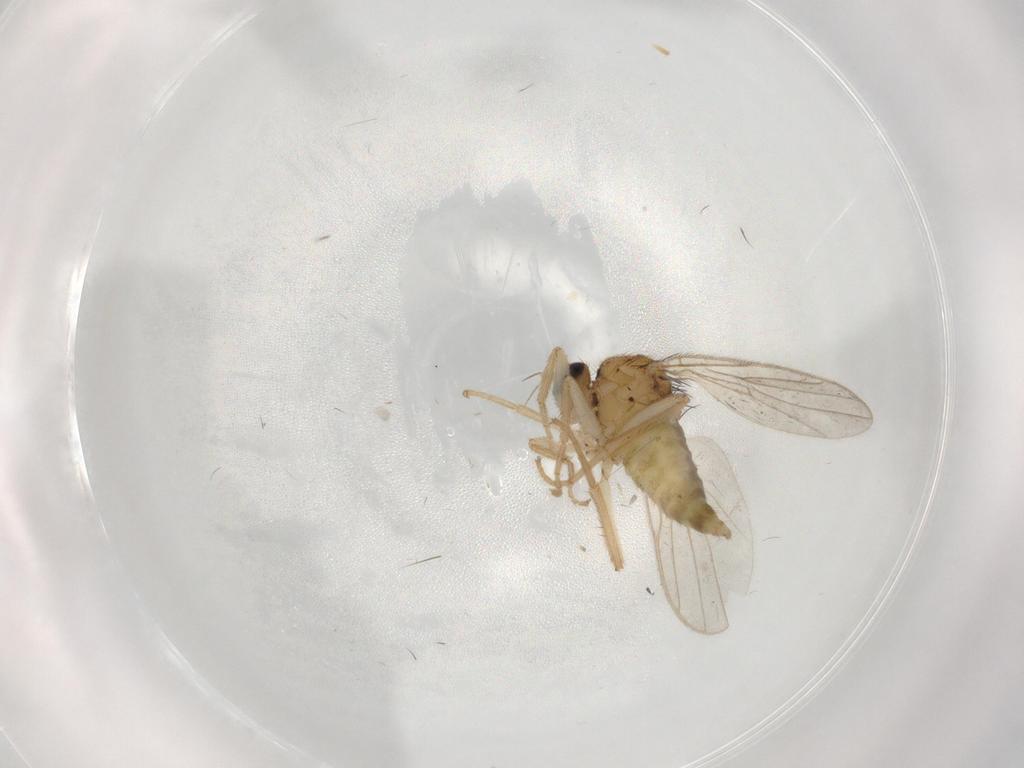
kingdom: Animalia
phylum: Arthropoda
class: Insecta
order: Diptera
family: Hybotidae
